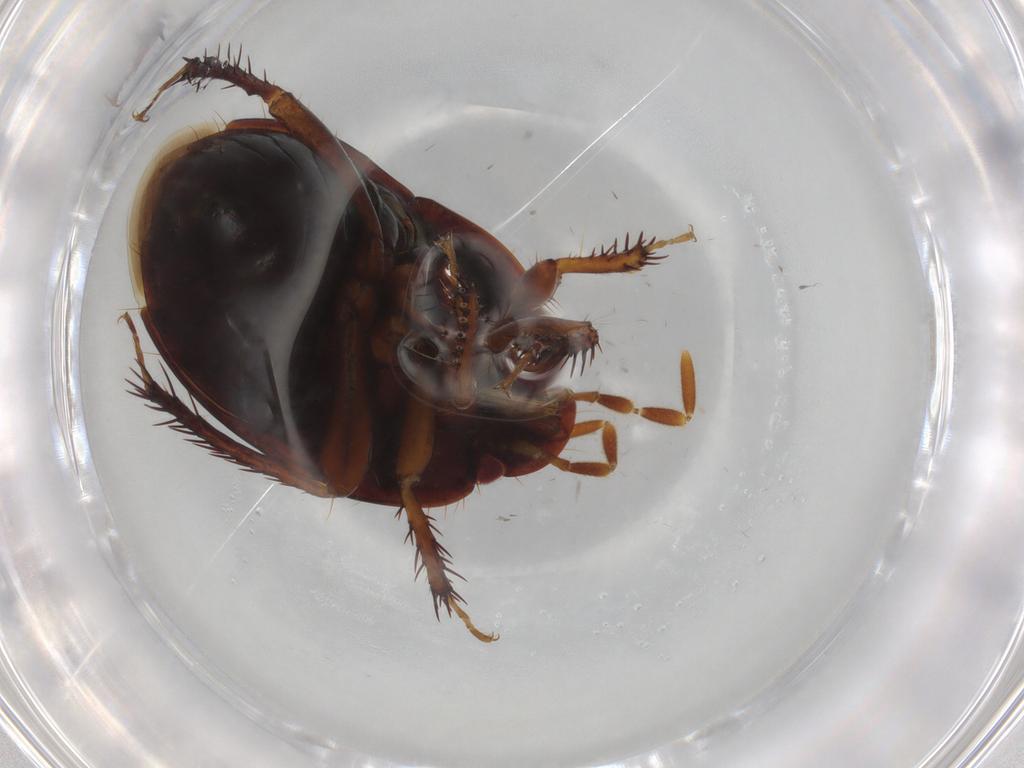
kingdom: Animalia
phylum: Arthropoda
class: Insecta
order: Hemiptera
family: Cydnidae
